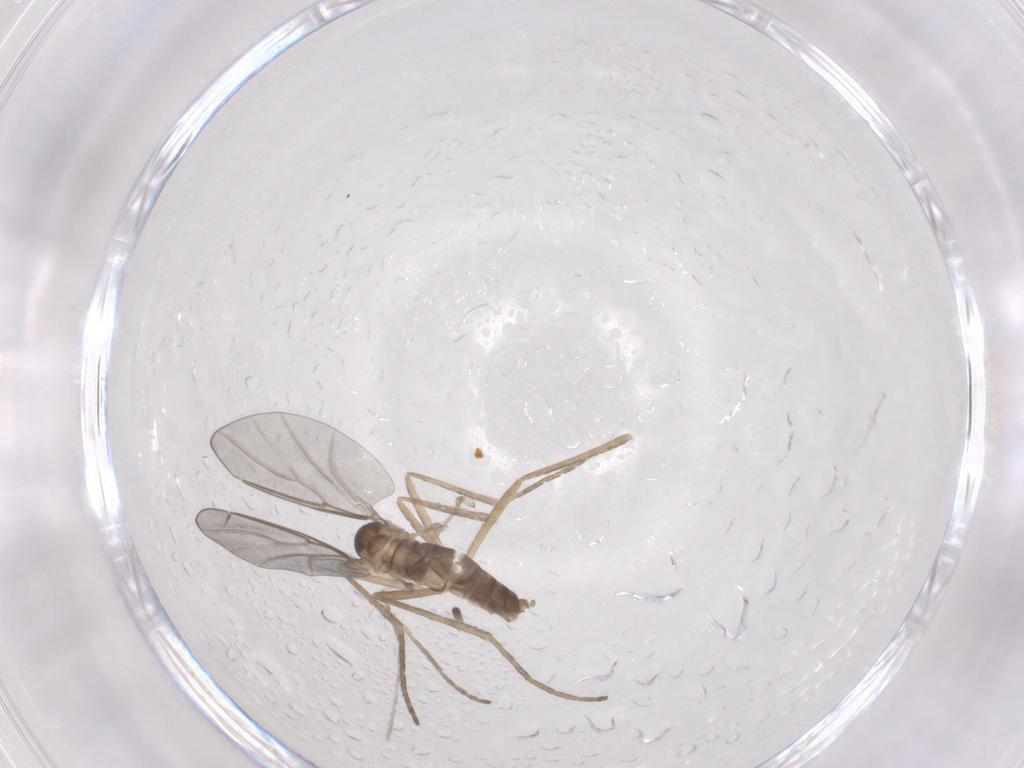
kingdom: Animalia
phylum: Arthropoda
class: Insecta
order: Diptera
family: Cecidomyiidae
